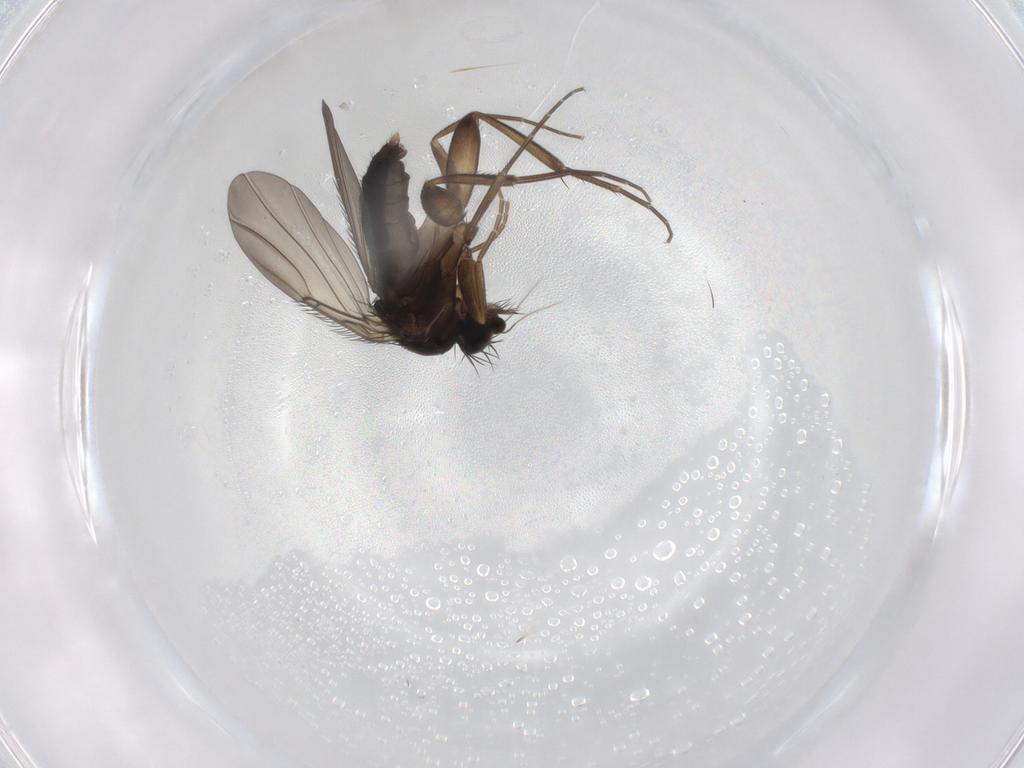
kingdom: Animalia
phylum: Arthropoda
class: Insecta
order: Diptera
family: Phoridae
